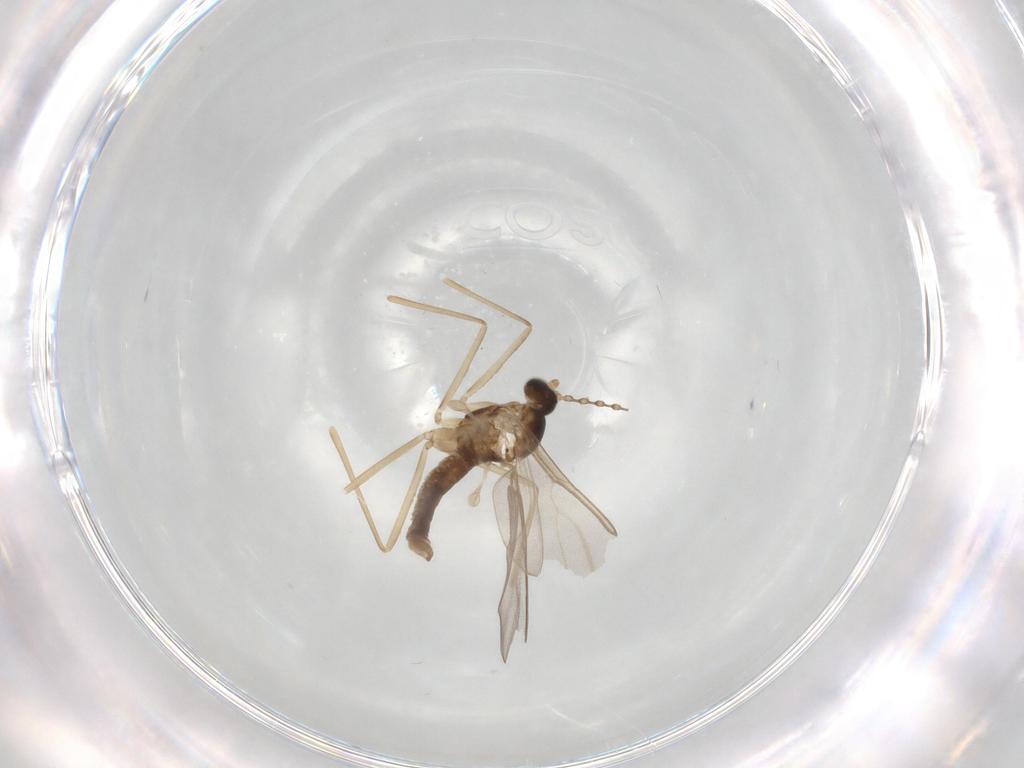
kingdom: Animalia
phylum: Arthropoda
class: Insecta
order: Diptera
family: Cecidomyiidae
